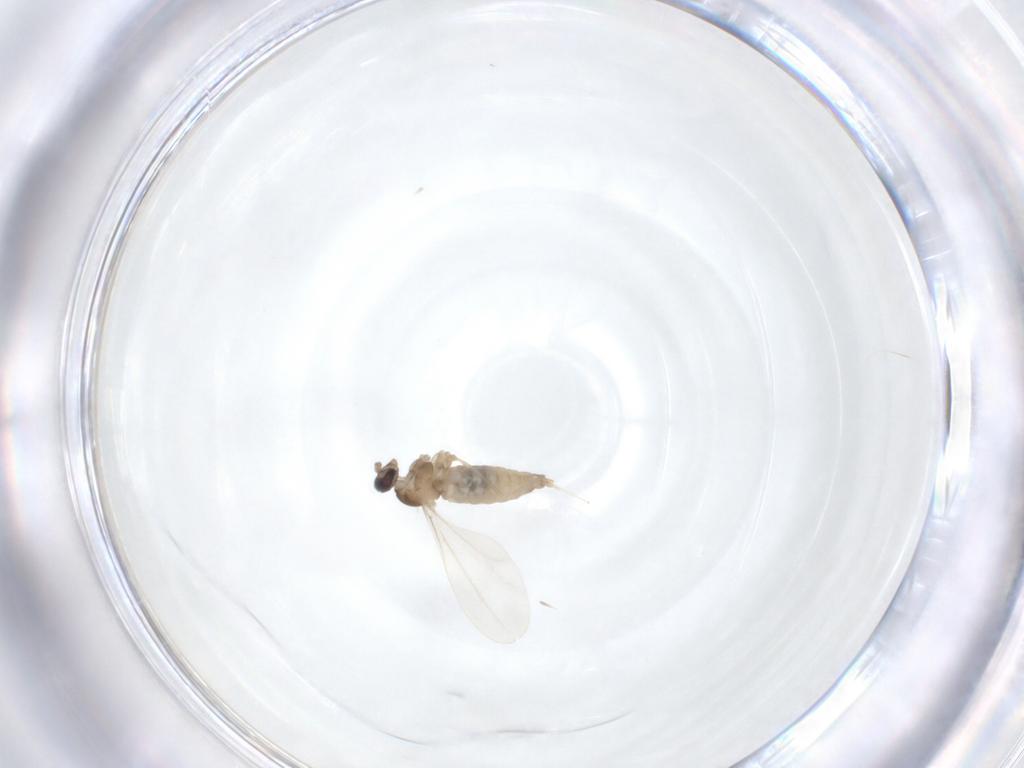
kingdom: Animalia
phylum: Arthropoda
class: Insecta
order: Diptera
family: Cecidomyiidae
